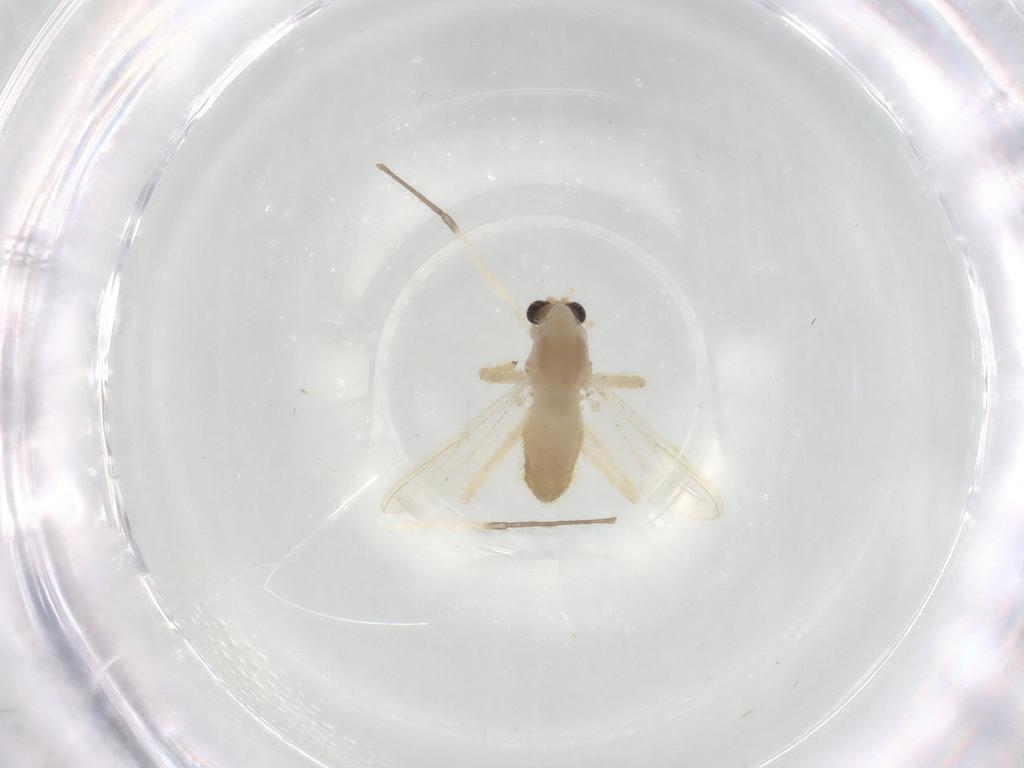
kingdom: Animalia
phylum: Arthropoda
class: Insecta
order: Diptera
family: Chironomidae
